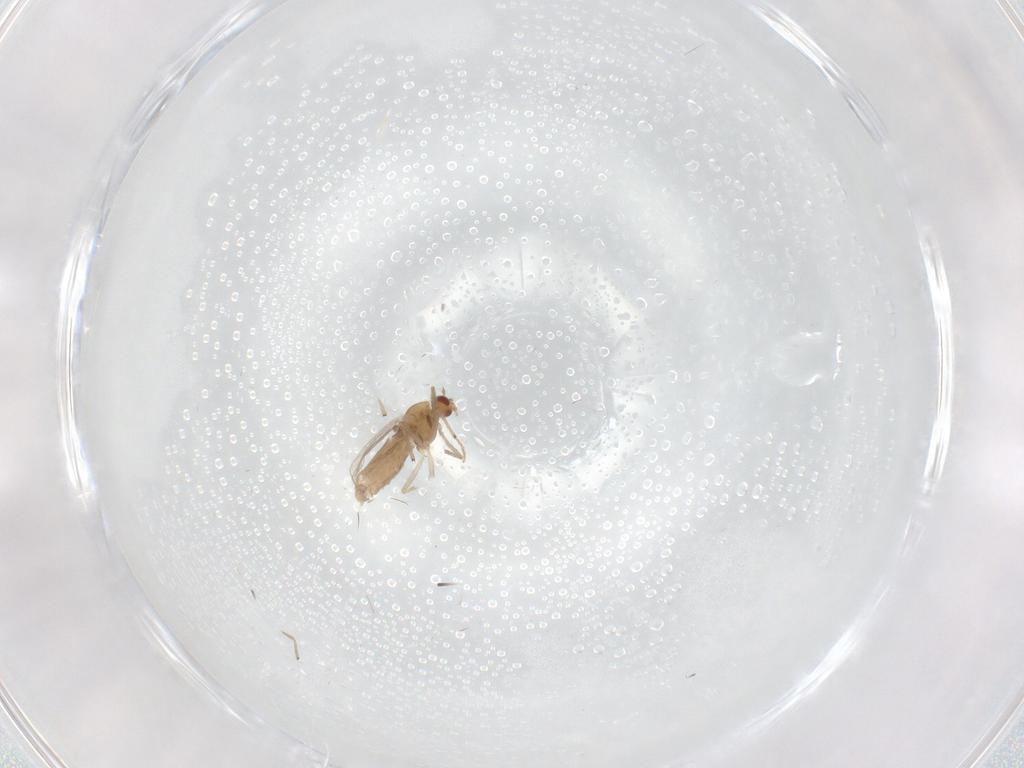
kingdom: Animalia
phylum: Arthropoda
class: Insecta
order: Diptera
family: Chironomidae
